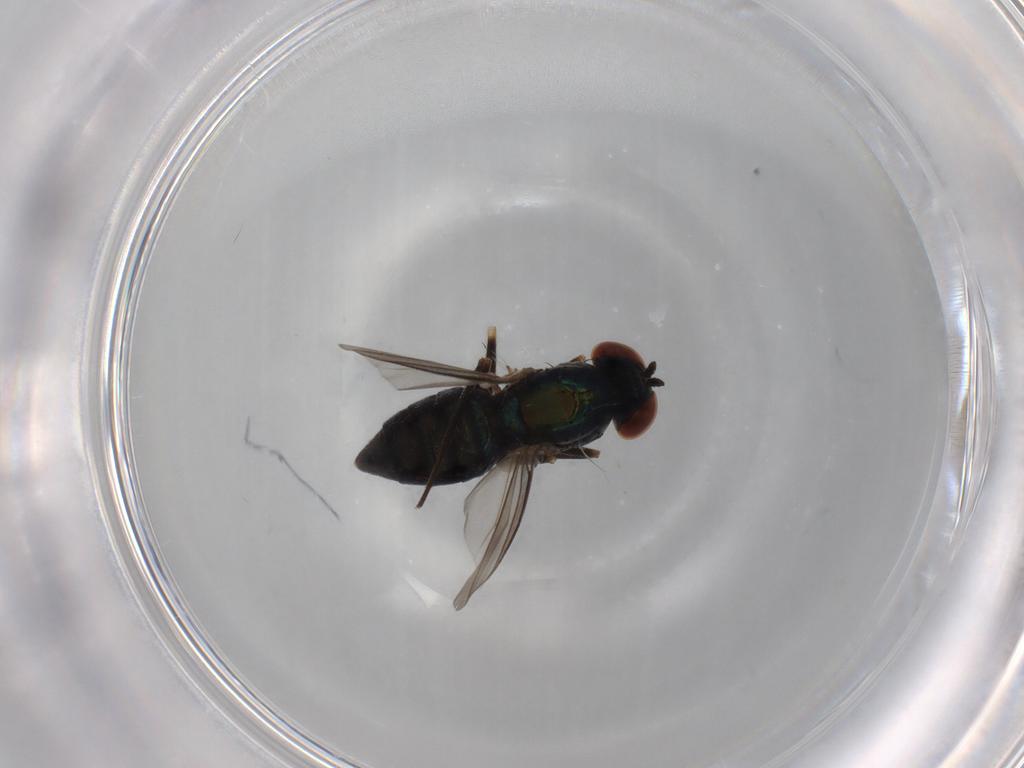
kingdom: Animalia
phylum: Arthropoda
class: Insecta
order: Diptera
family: Dolichopodidae
